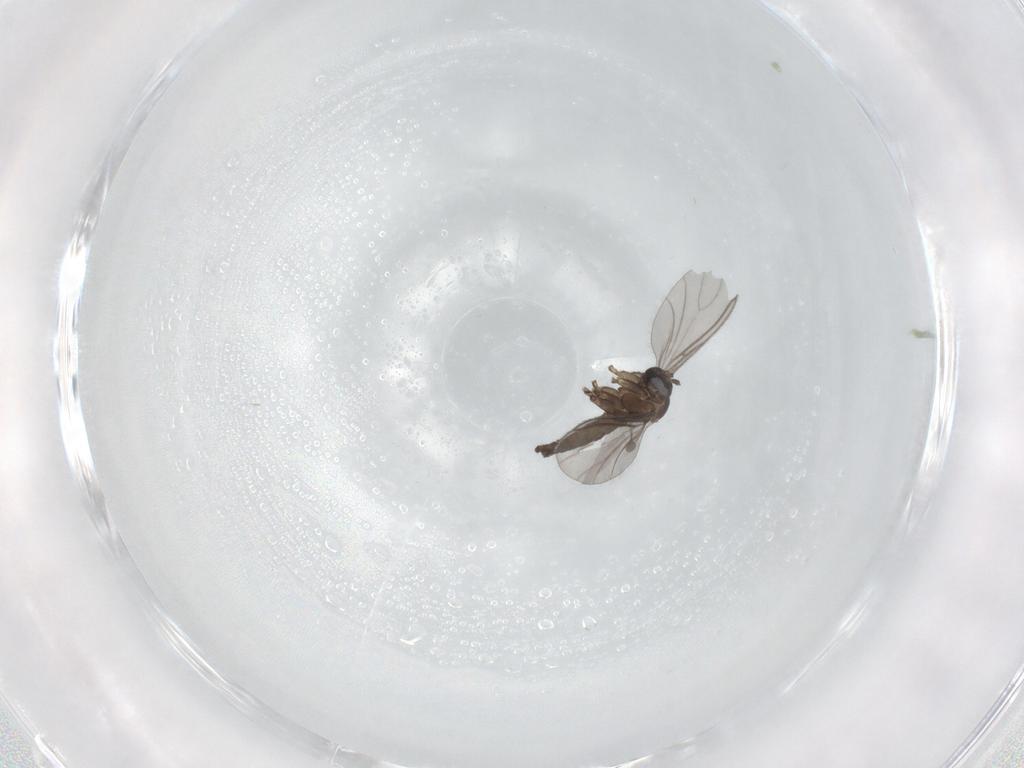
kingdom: Animalia
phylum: Arthropoda
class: Insecta
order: Diptera
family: Sciaridae
